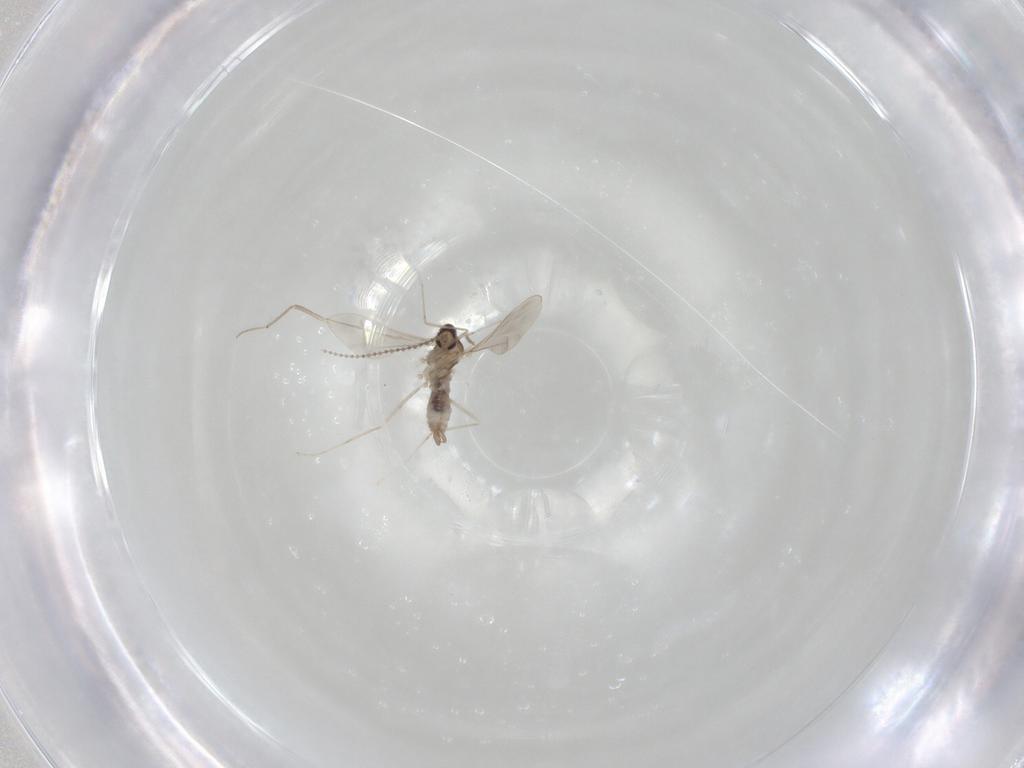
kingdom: Animalia
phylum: Arthropoda
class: Insecta
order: Diptera
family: Cecidomyiidae
